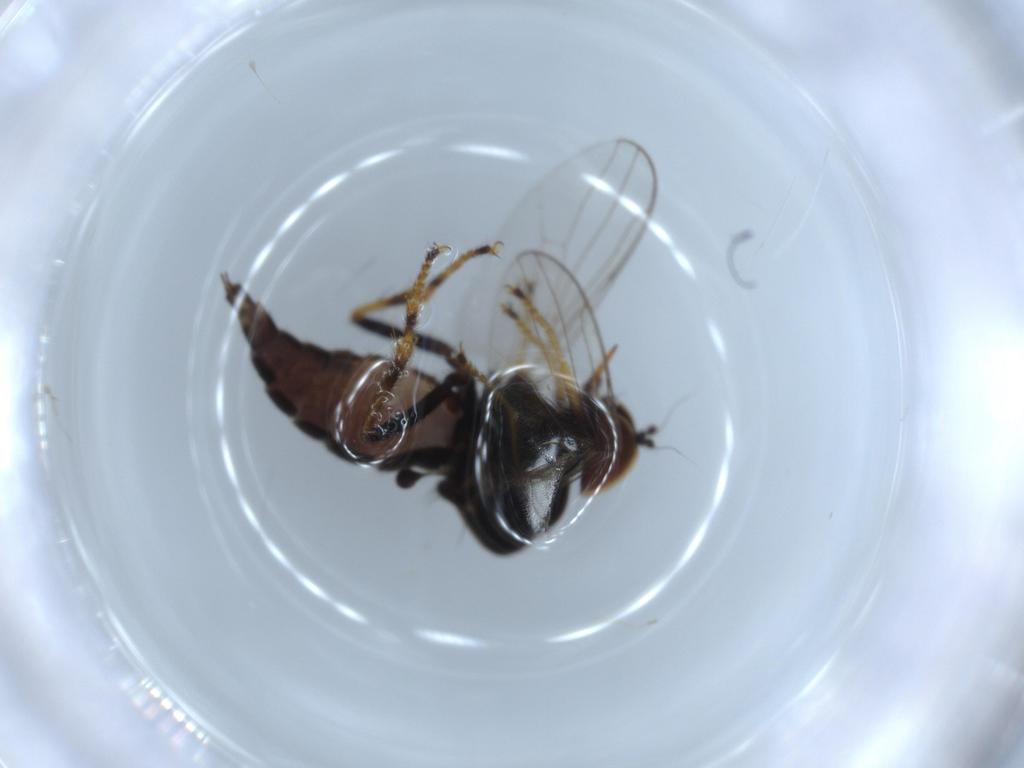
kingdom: Animalia
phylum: Arthropoda
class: Insecta
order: Diptera
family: Hybotidae
